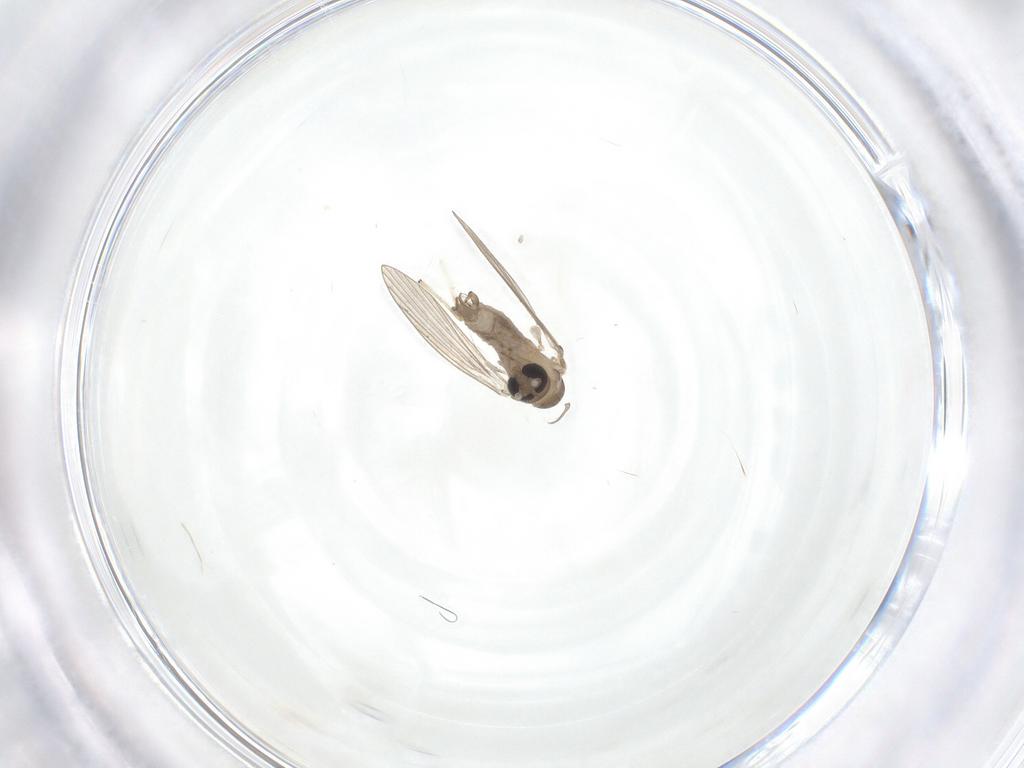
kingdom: Animalia
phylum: Arthropoda
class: Insecta
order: Diptera
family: Psychodidae
